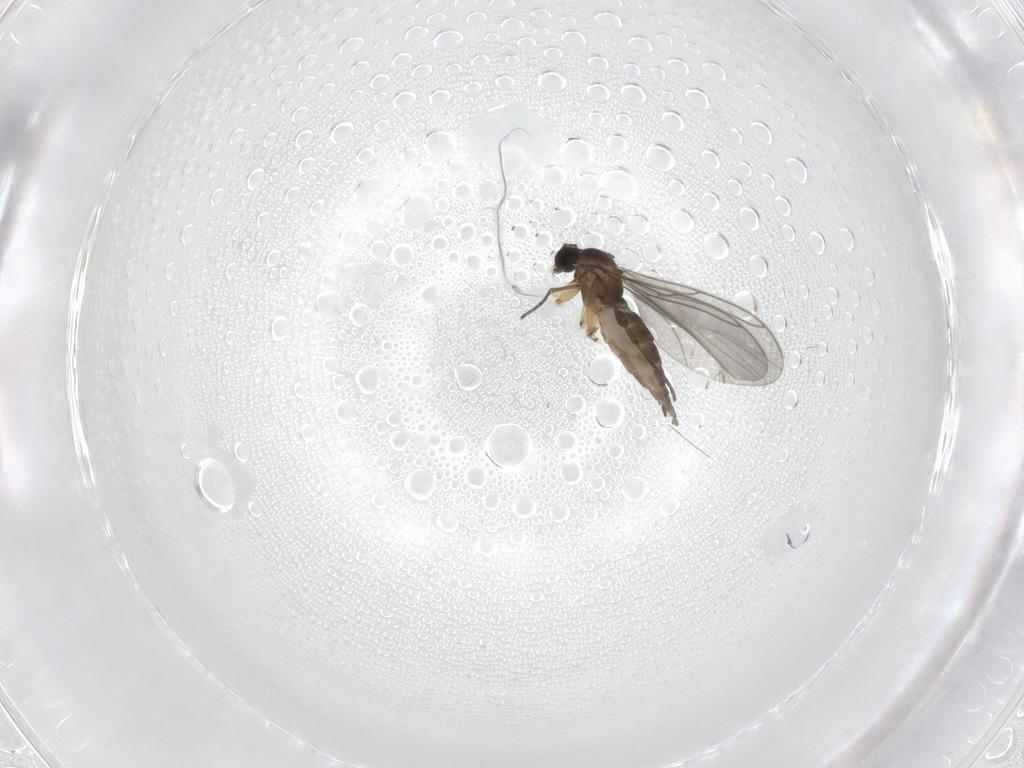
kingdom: Animalia
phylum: Arthropoda
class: Insecta
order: Diptera
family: Sciaridae
